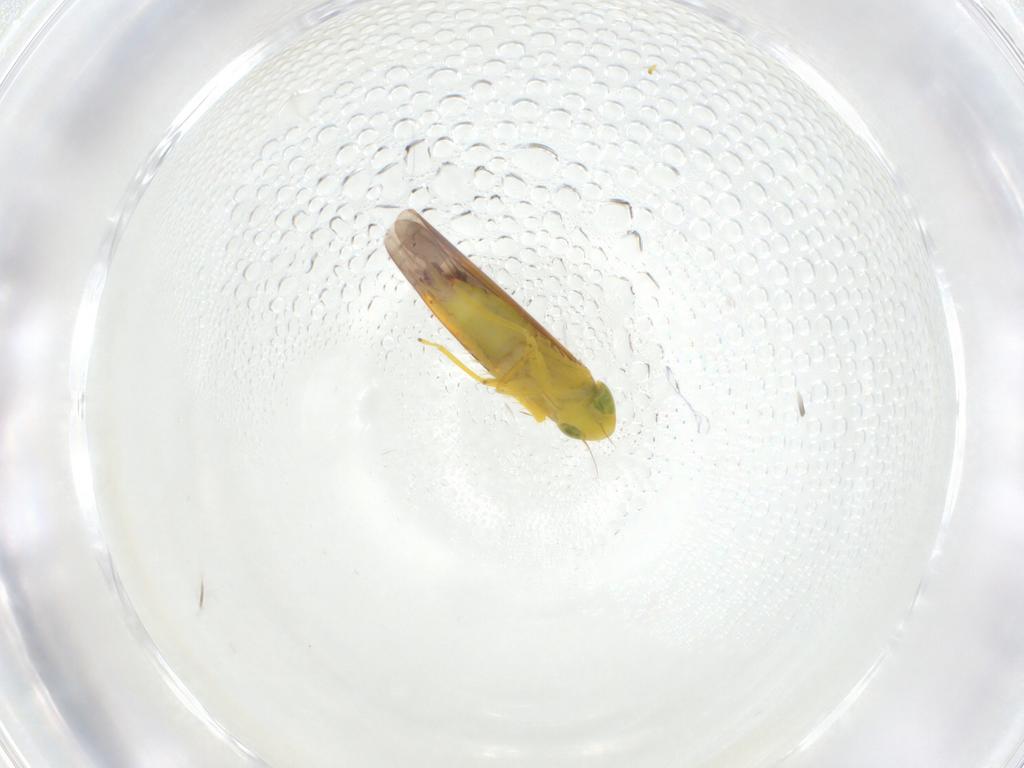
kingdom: Animalia
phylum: Arthropoda
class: Insecta
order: Hemiptera
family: Cicadellidae
